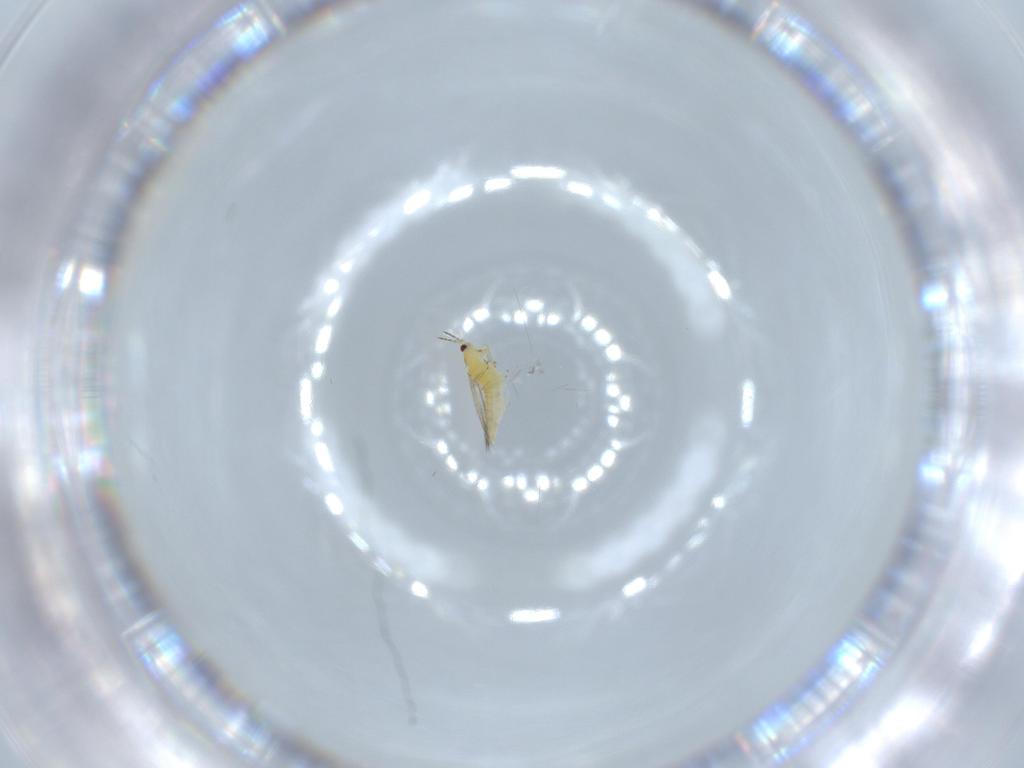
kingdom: Animalia
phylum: Arthropoda
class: Insecta
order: Thysanoptera
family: Thripidae
